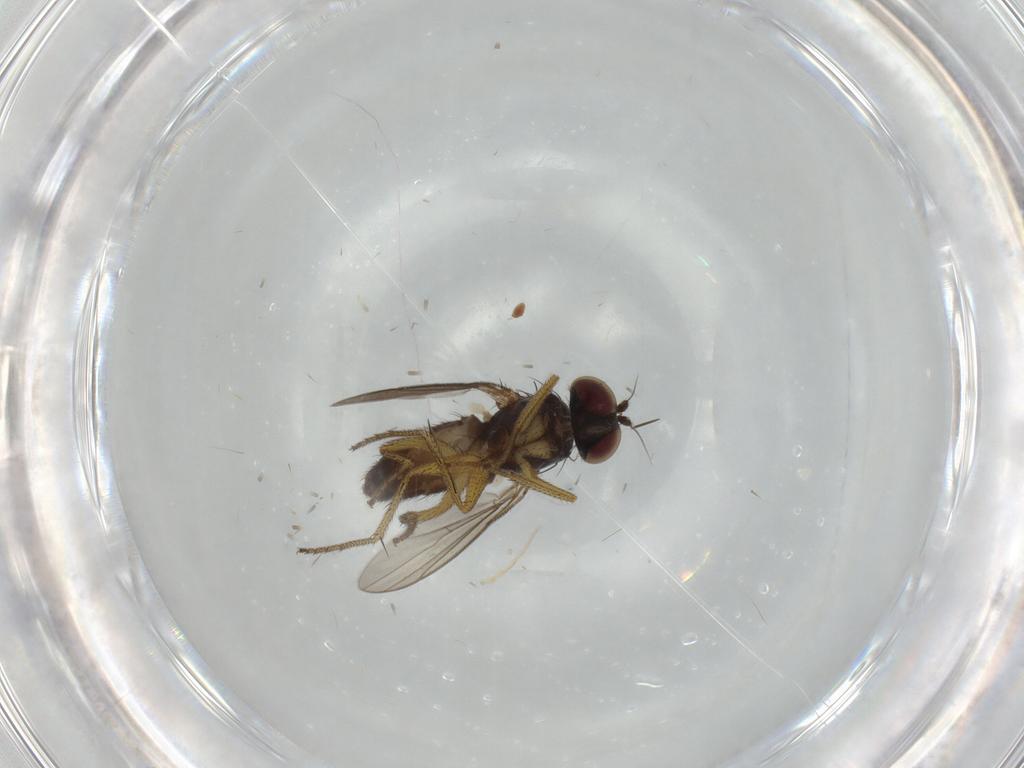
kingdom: Animalia
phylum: Arthropoda
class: Insecta
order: Diptera
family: Dolichopodidae
